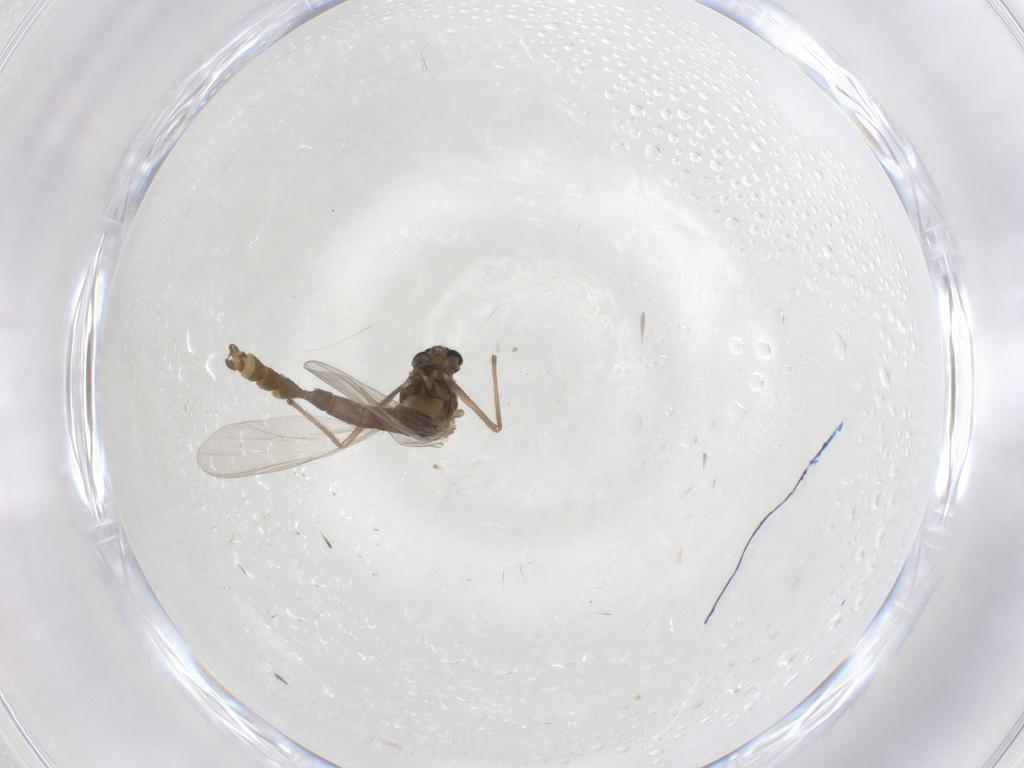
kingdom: Animalia
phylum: Arthropoda
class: Insecta
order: Diptera
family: Chironomidae
